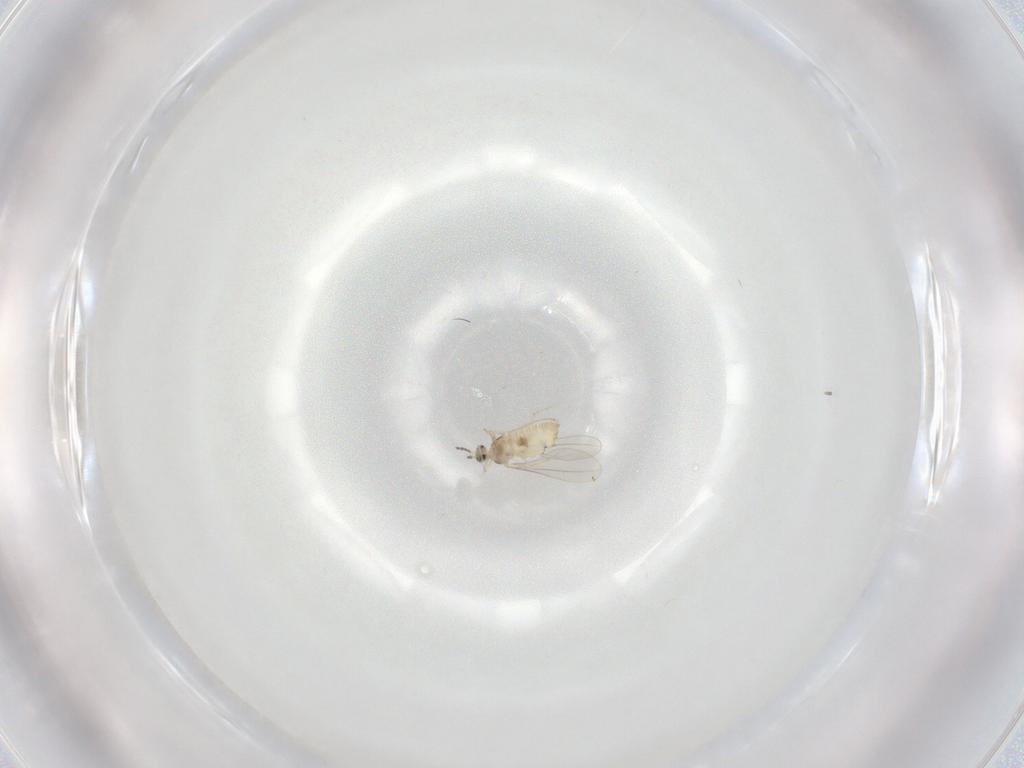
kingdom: Animalia
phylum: Arthropoda
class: Insecta
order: Diptera
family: Cecidomyiidae
